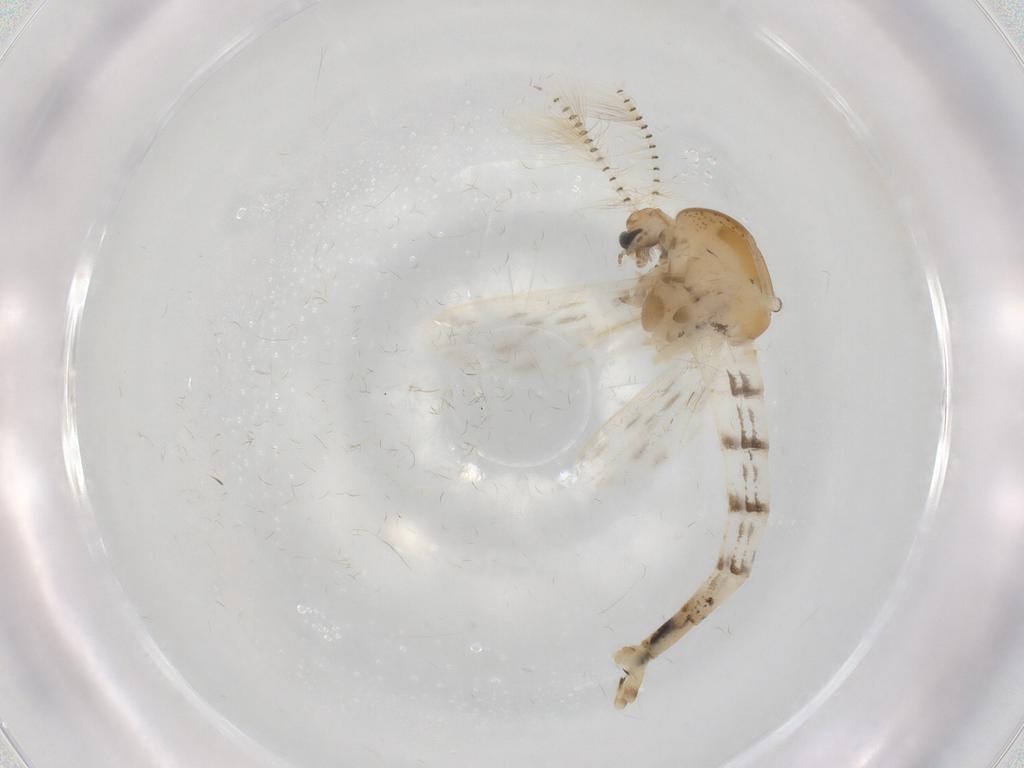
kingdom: Animalia
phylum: Arthropoda
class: Insecta
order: Diptera
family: Chaoboridae
